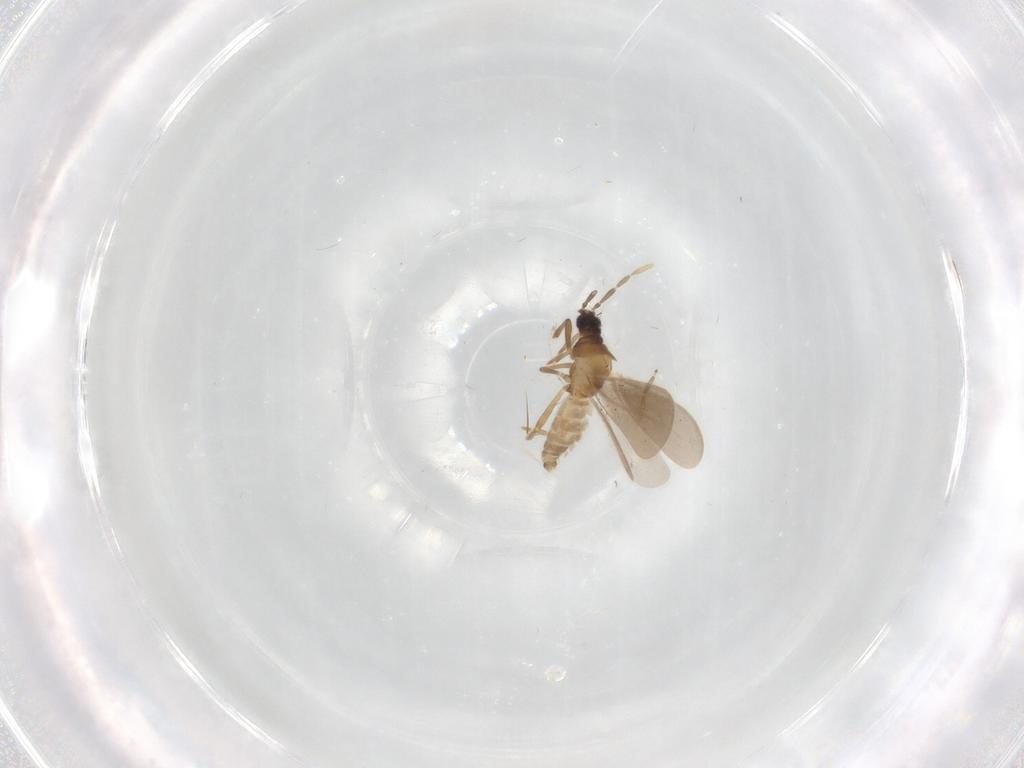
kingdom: Animalia
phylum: Arthropoda
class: Insecta
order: Hemiptera
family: Enicocephalidae
